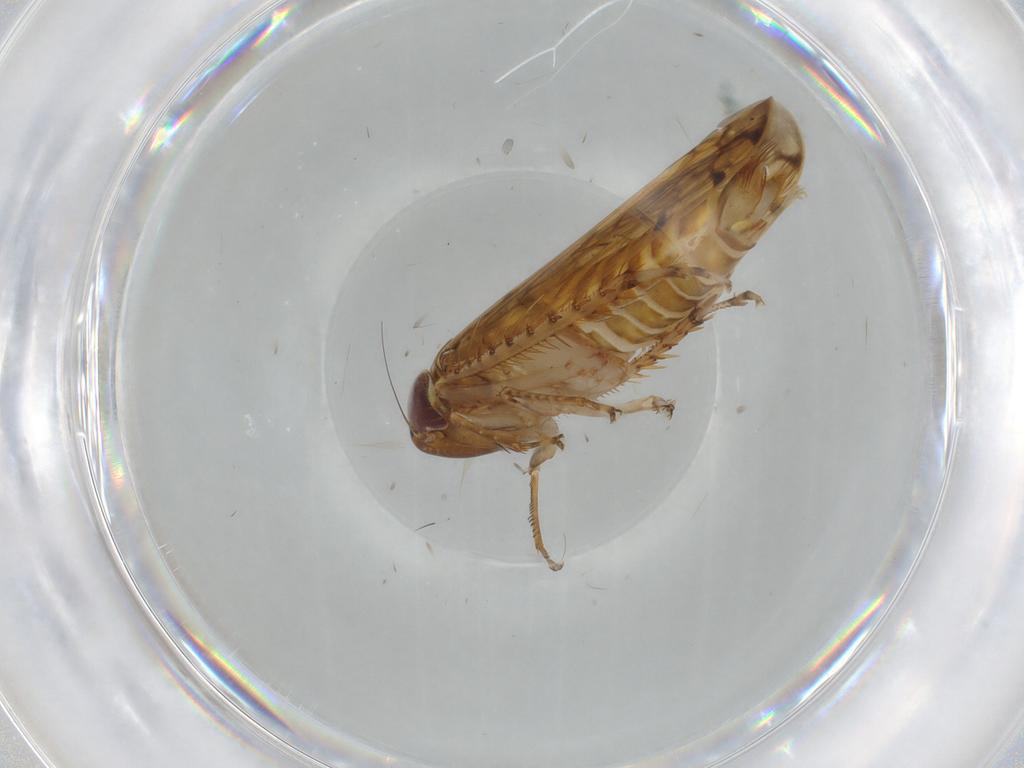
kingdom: Animalia
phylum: Arthropoda
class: Insecta
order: Hemiptera
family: Cicadellidae
